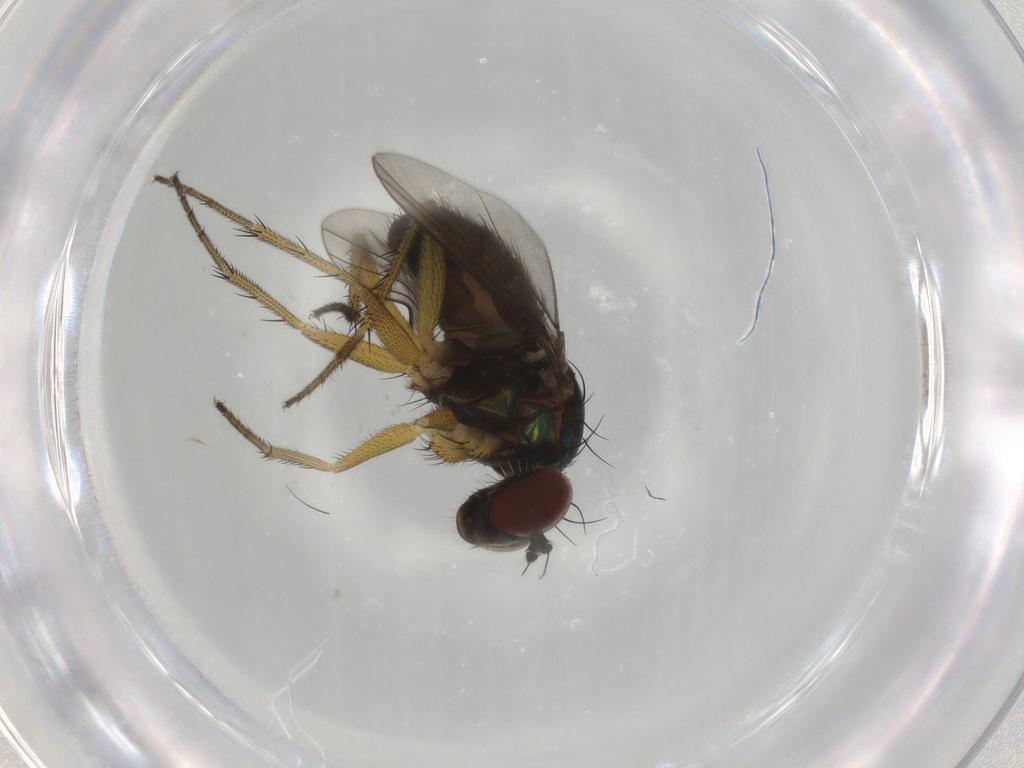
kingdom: Animalia
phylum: Arthropoda
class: Insecta
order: Diptera
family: Dolichopodidae
